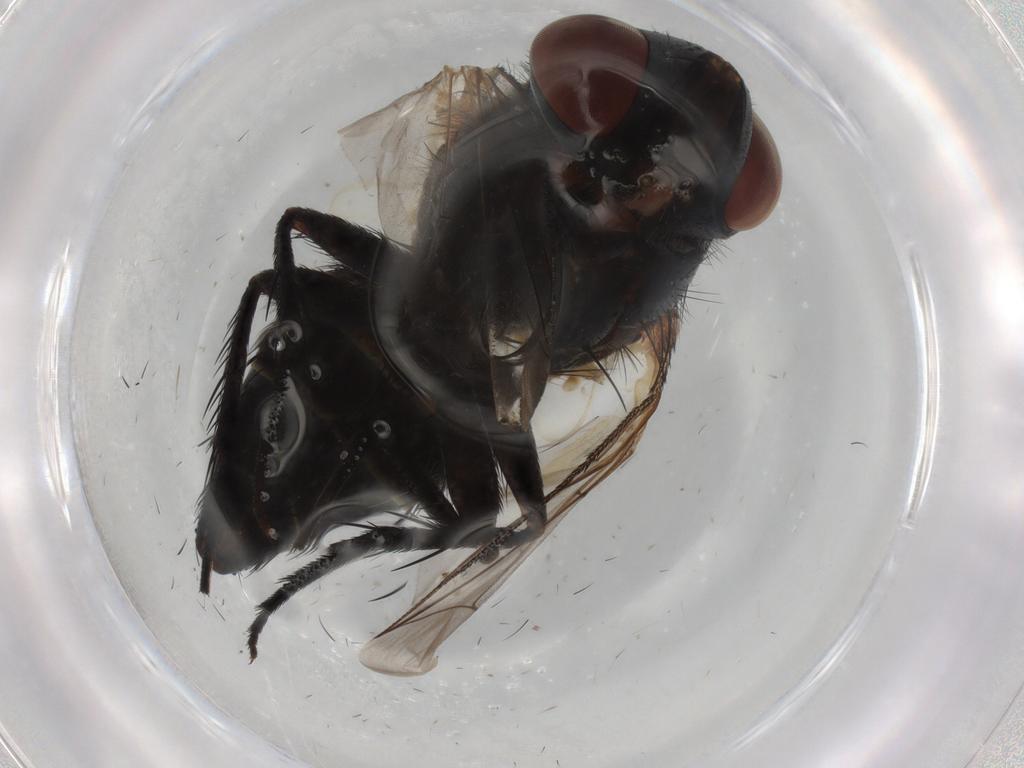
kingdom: Animalia
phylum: Arthropoda
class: Insecta
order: Diptera
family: Sarcophagidae
